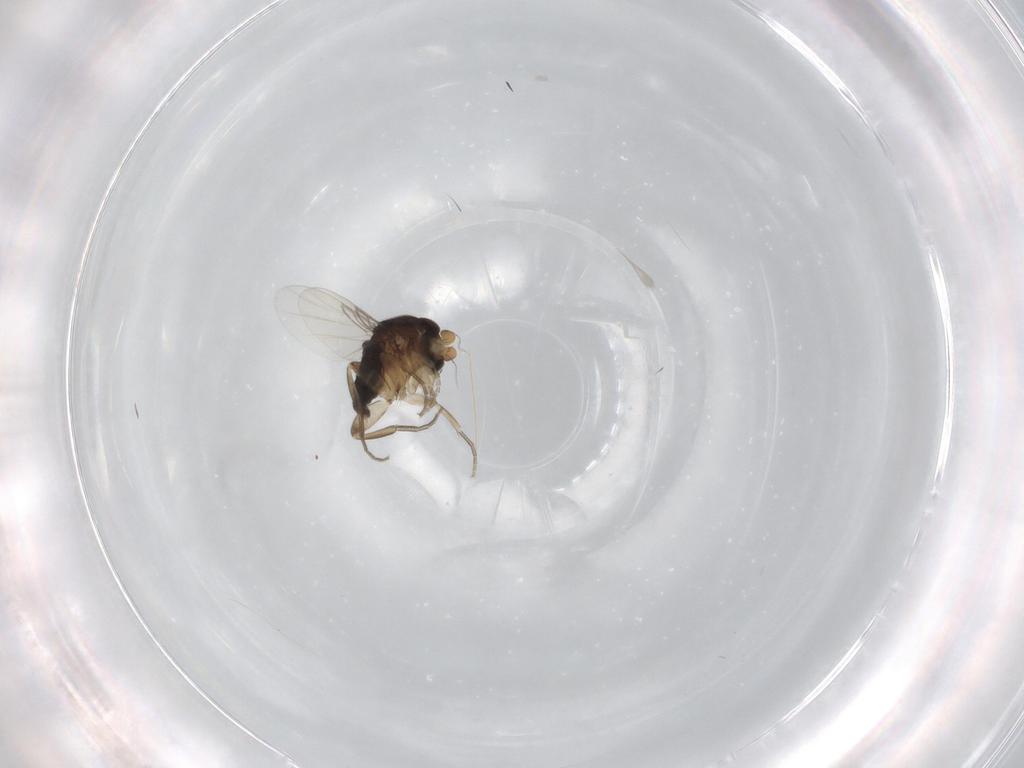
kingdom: Animalia
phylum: Arthropoda
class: Insecta
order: Diptera
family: Phoridae
